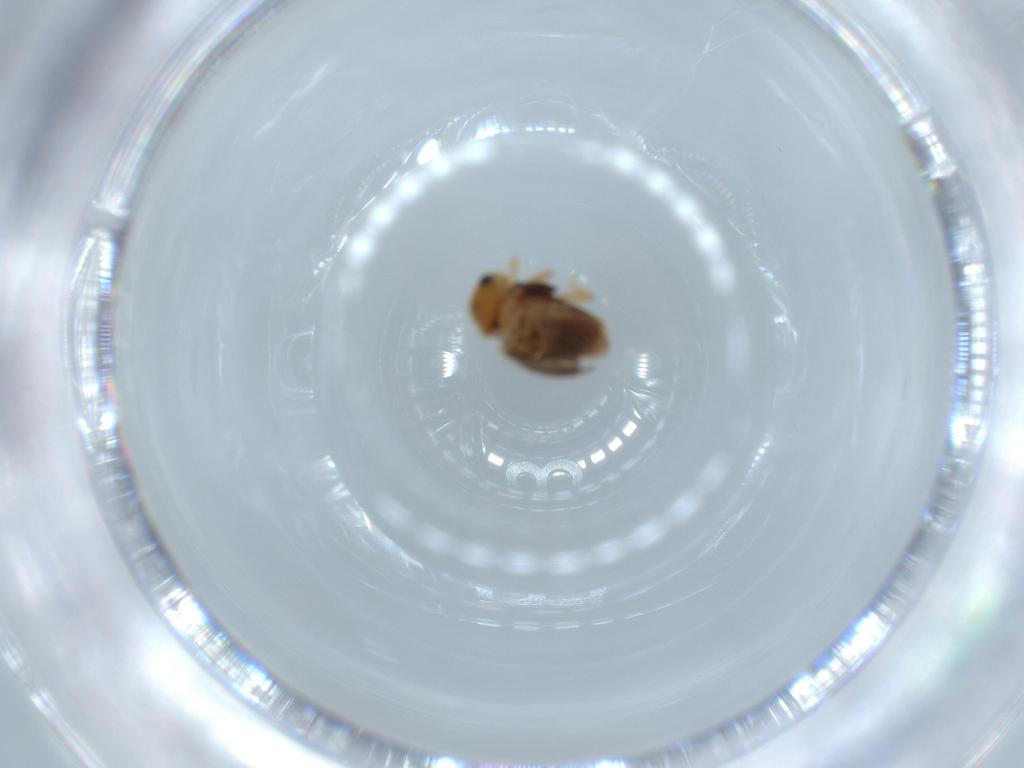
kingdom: Animalia
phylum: Arthropoda
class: Insecta
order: Coleoptera
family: Coccinellidae
